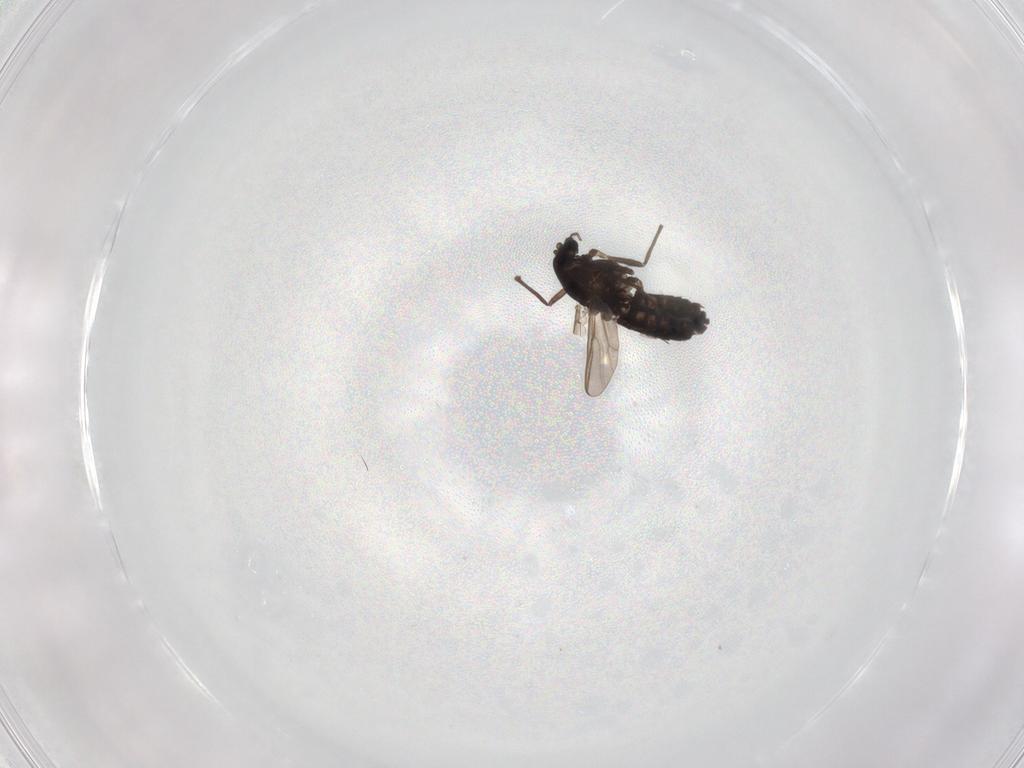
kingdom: Animalia
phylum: Arthropoda
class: Insecta
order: Diptera
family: Chironomidae
